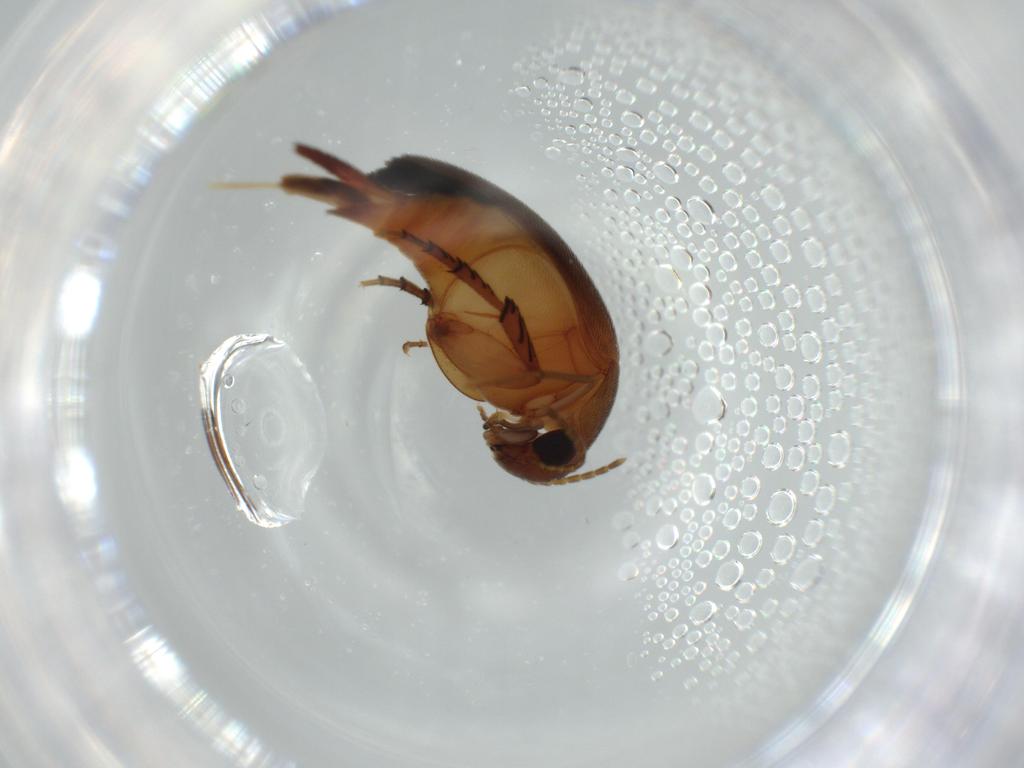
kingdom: Animalia
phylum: Arthropoda
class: Insecta
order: Coleoptera
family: Mordellidae
